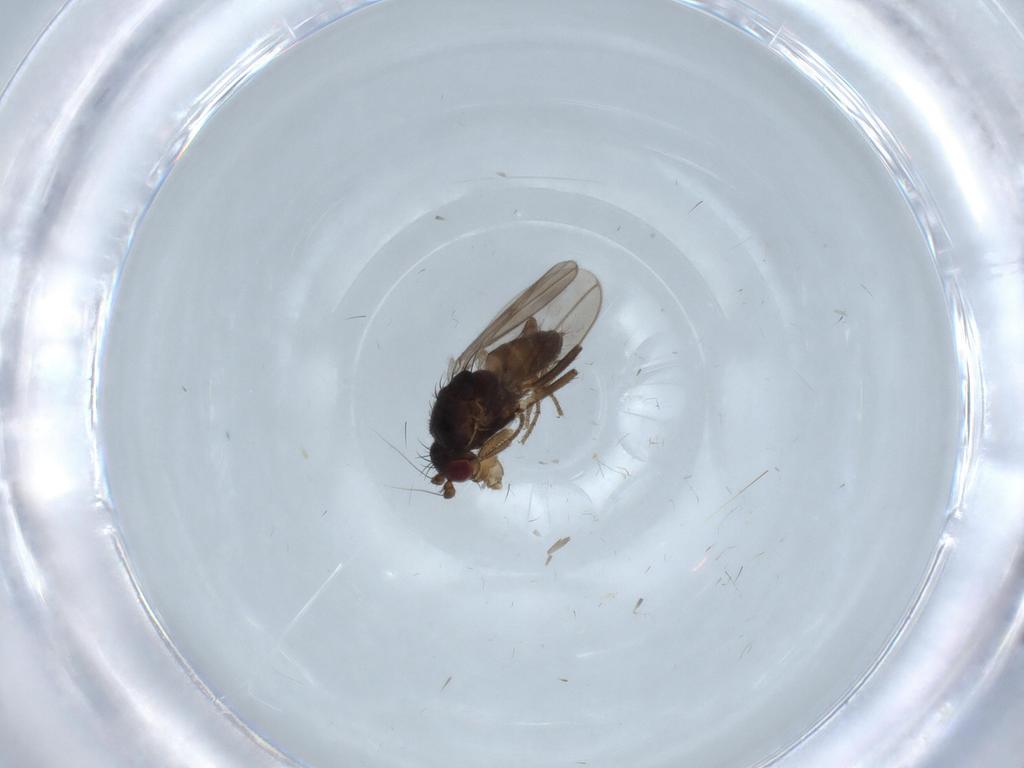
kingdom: Animalia
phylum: Arthropoda
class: Insecta
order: Diptera
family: Sphaeroceridae
